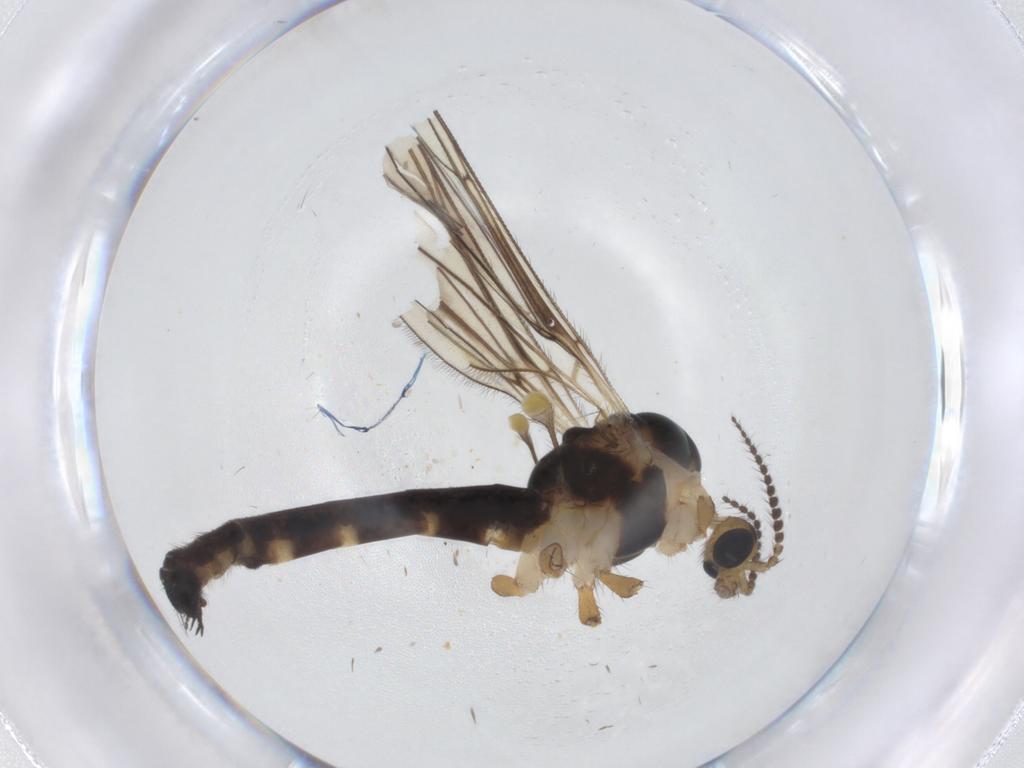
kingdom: Animalia
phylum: Arthropoda
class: Insecta
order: Diptera
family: Limoniidae
